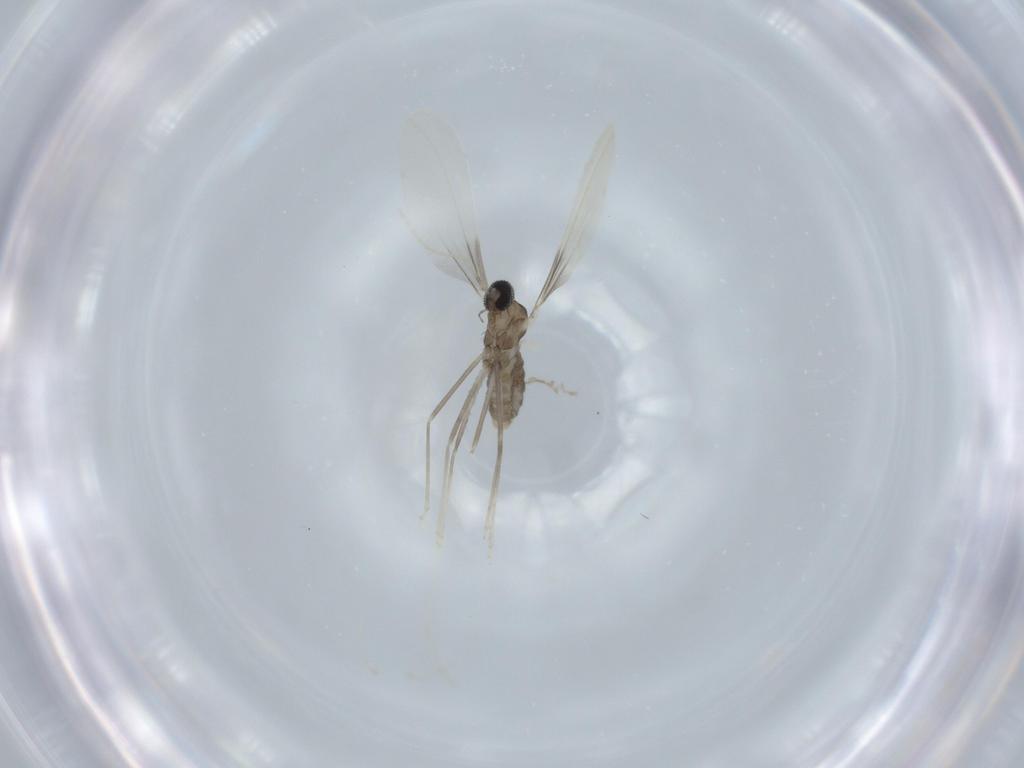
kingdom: Animalia
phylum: Arthropoda
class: Insecta
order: Diptera
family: Cecidomyiidae
